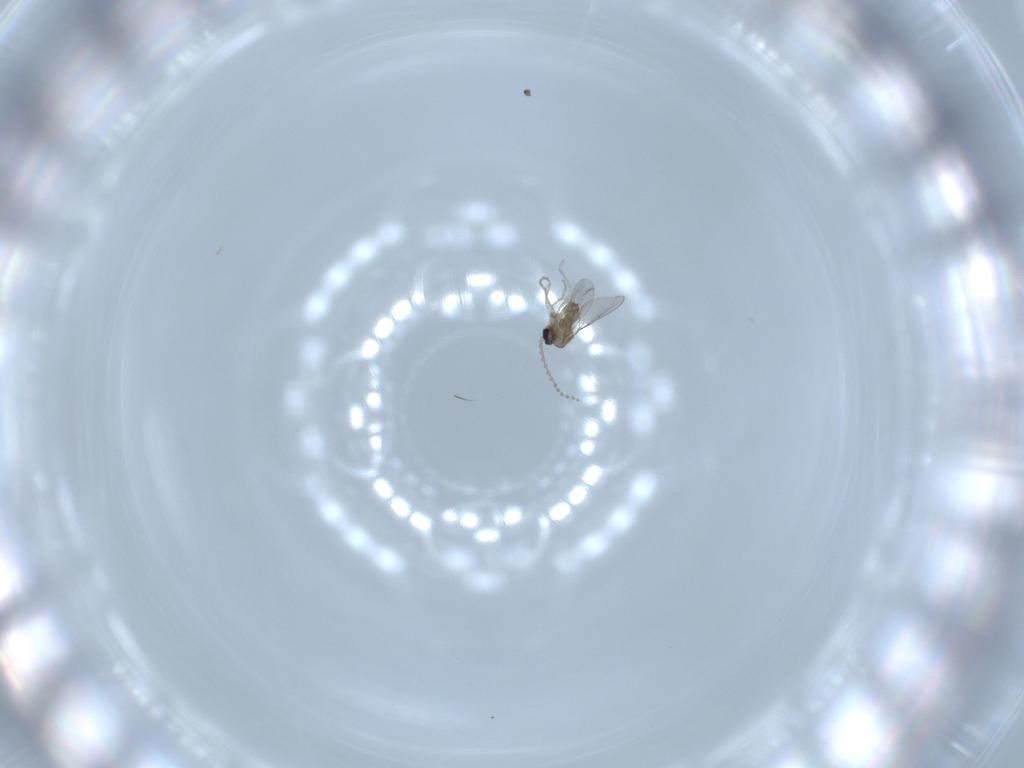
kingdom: Animalia
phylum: Arthropoda
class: Insecta
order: Diptera
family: Sciaridae
